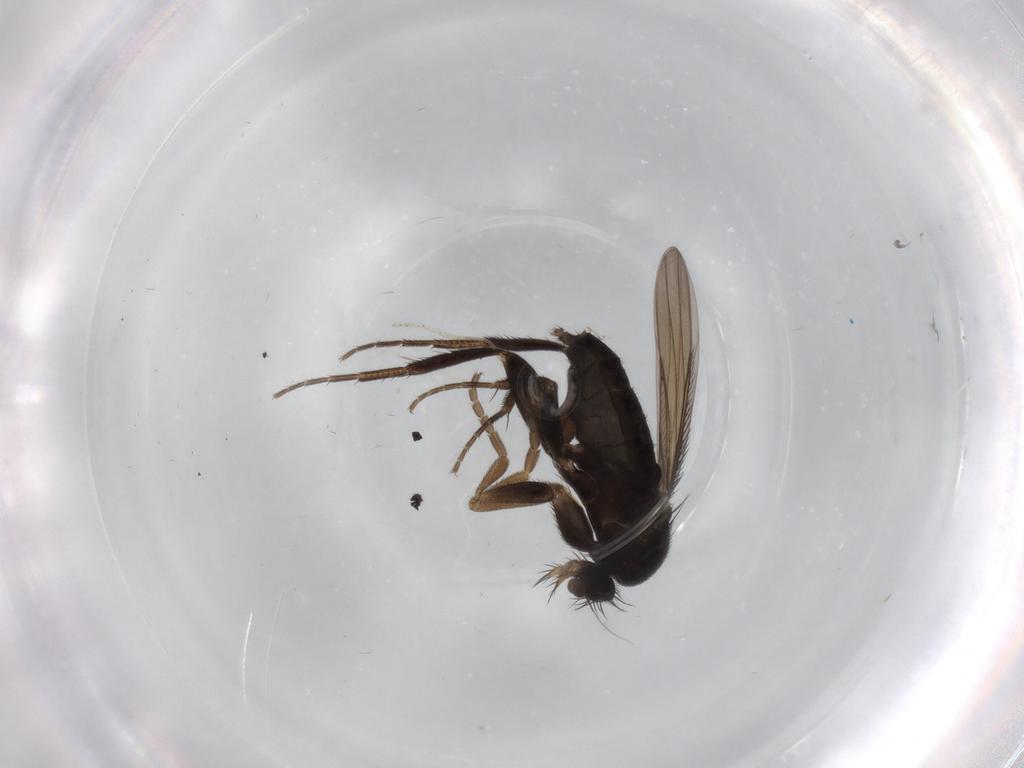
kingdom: Animalia
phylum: Arthropoda
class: Insecta
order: Diptera
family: Phoridae
